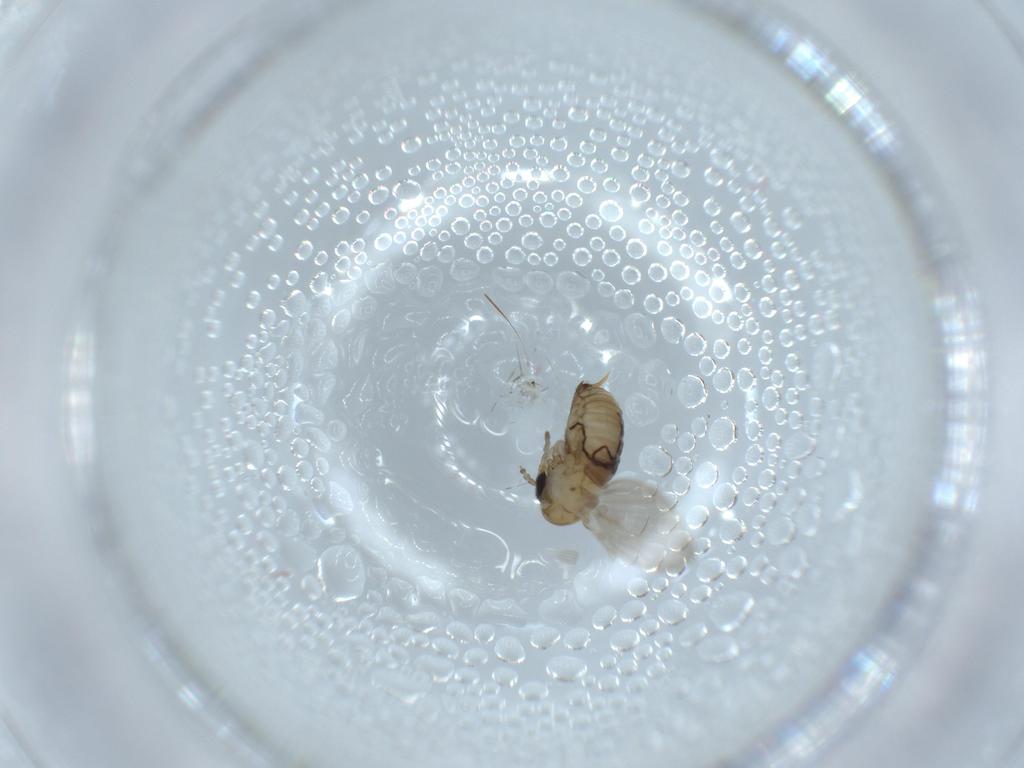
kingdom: Animalia
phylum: Arthropoda
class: Insecta
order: Diptera
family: Psychodidae
